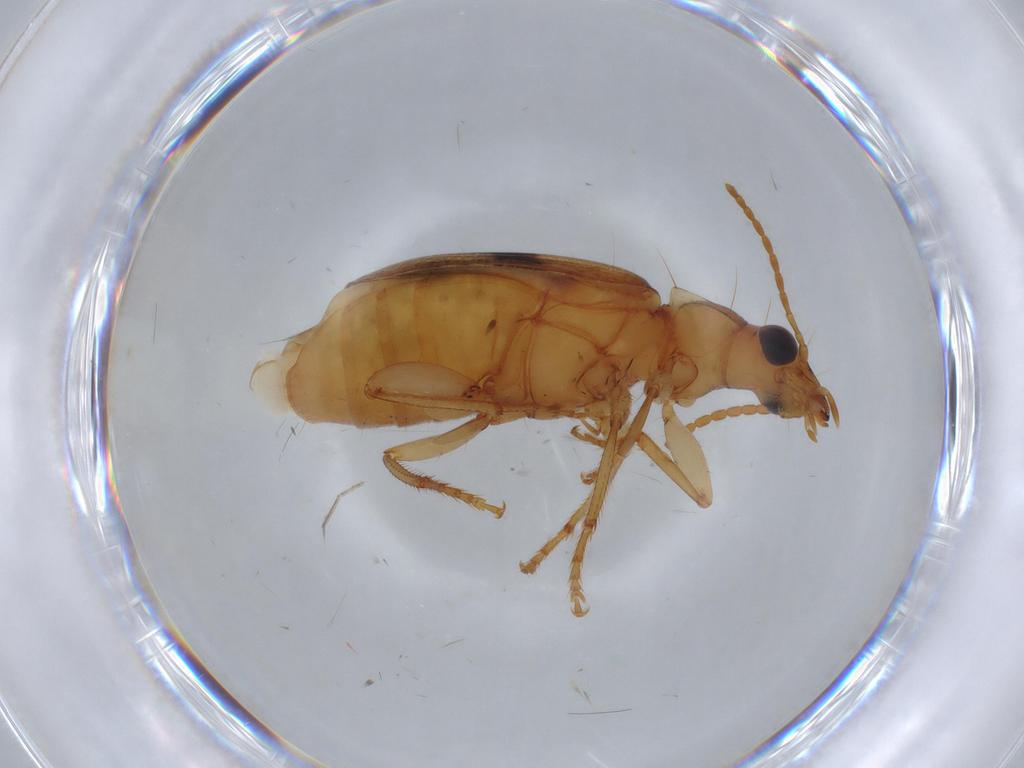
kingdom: Animalia
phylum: Arthropoda
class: Insecta
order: Coleoptera
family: Carabidae
